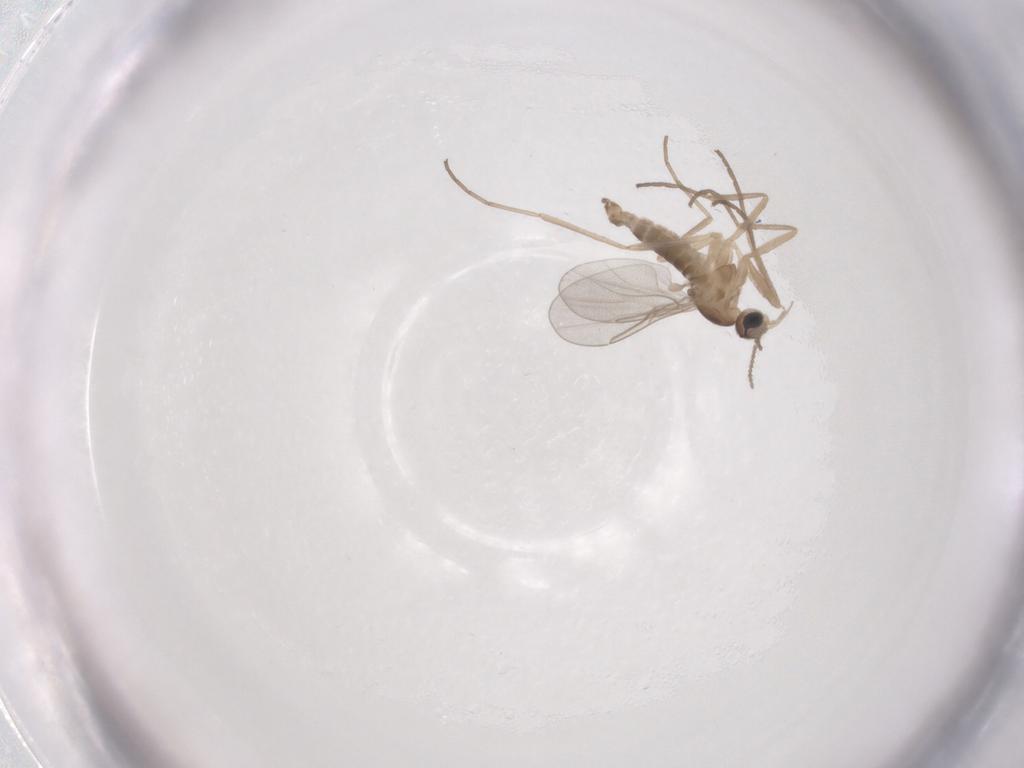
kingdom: Animalia
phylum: Arthropoda
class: Insecta
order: Diptera
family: Cecidomyiidae
